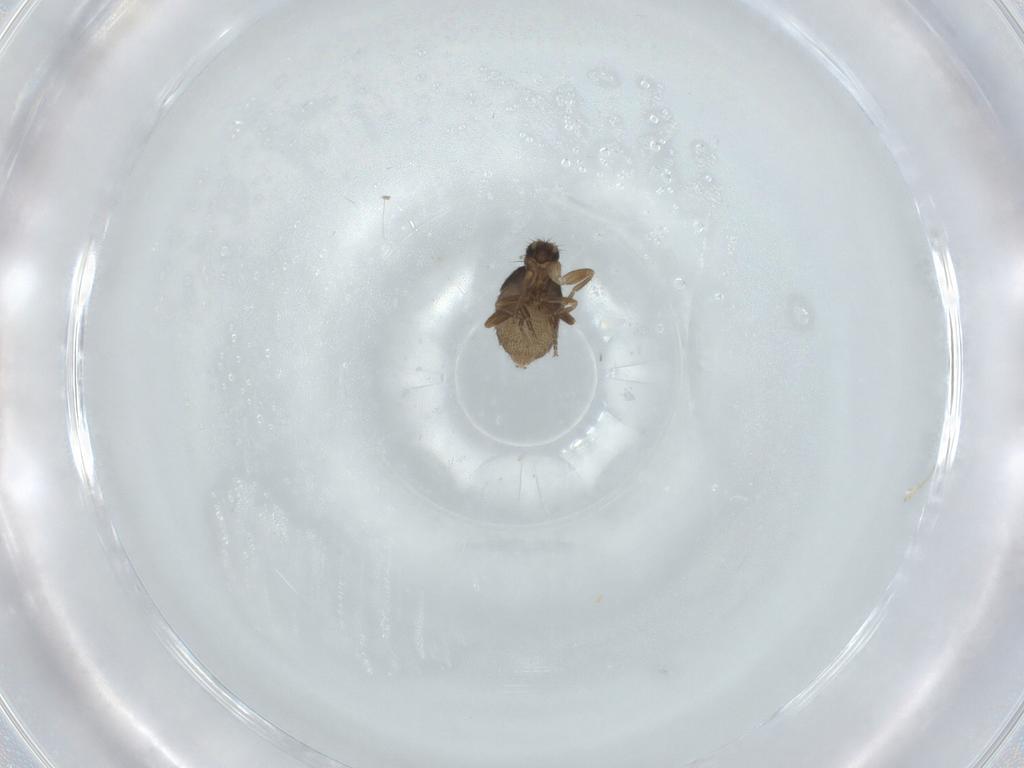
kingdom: Animalia
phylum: Arthropoda
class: Insecta
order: Diptera
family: Phoridae
